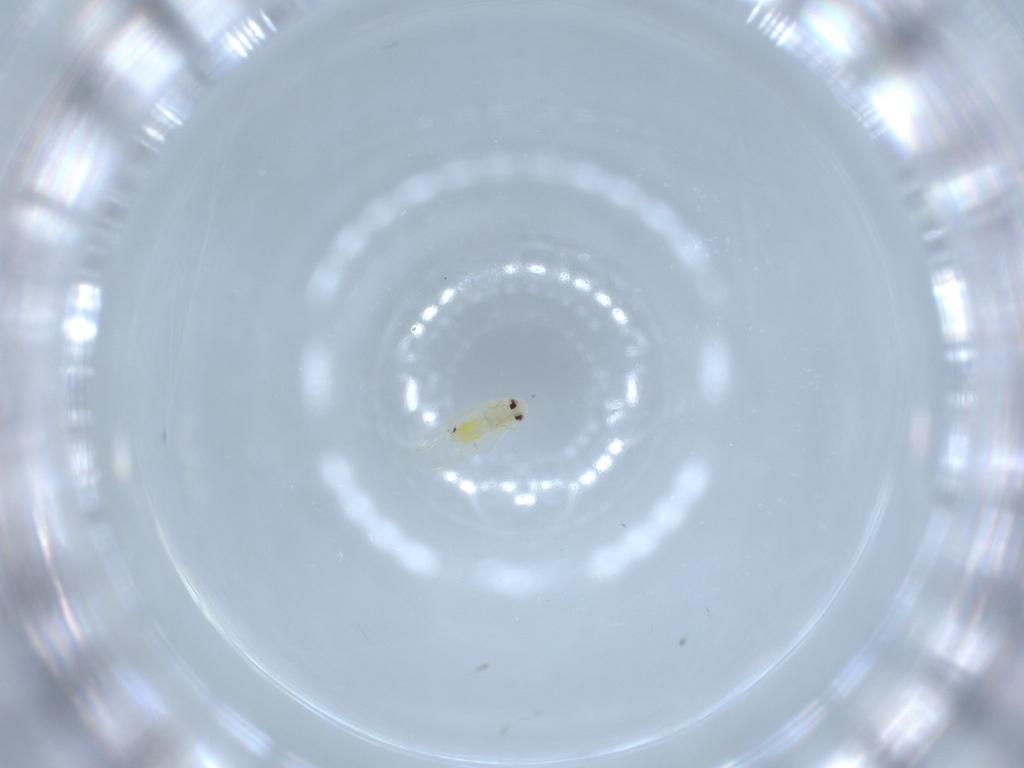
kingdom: Animalia
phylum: Arthropoda
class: Insecta
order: Hemiptera
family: Aleyrodidae
